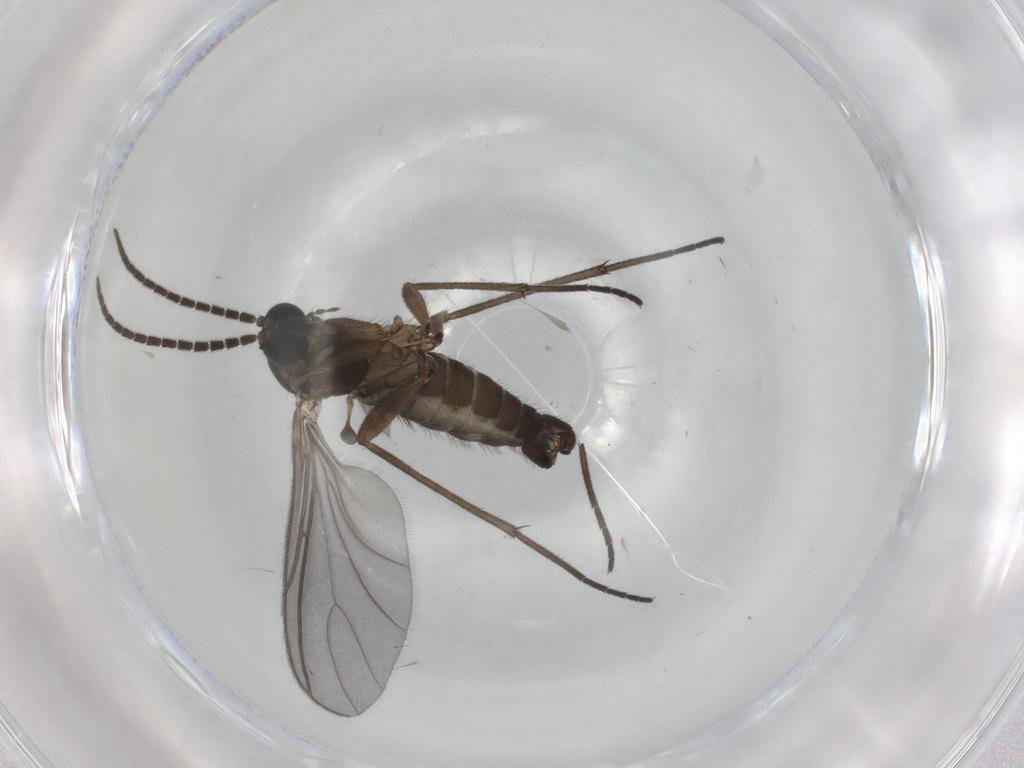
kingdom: Animalia
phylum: Arthropoda
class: Insecta
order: Diptera
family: Sciaridae
